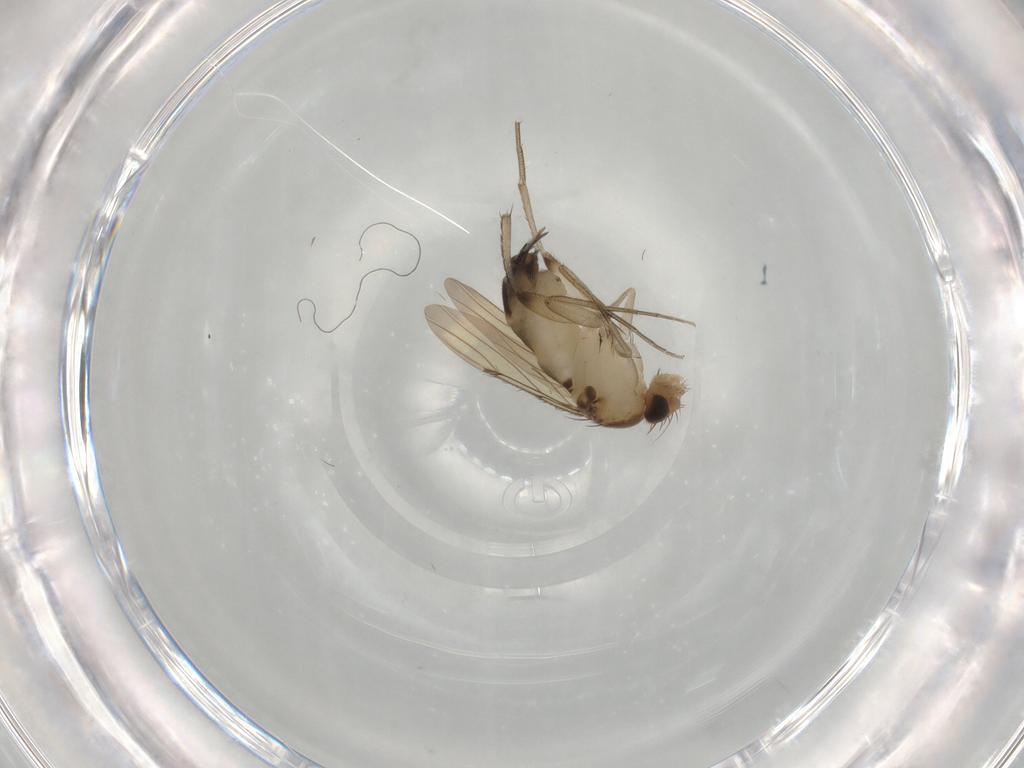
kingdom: Animalia
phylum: Arthropoda
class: Insecta
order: Diptera
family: Phoridae
